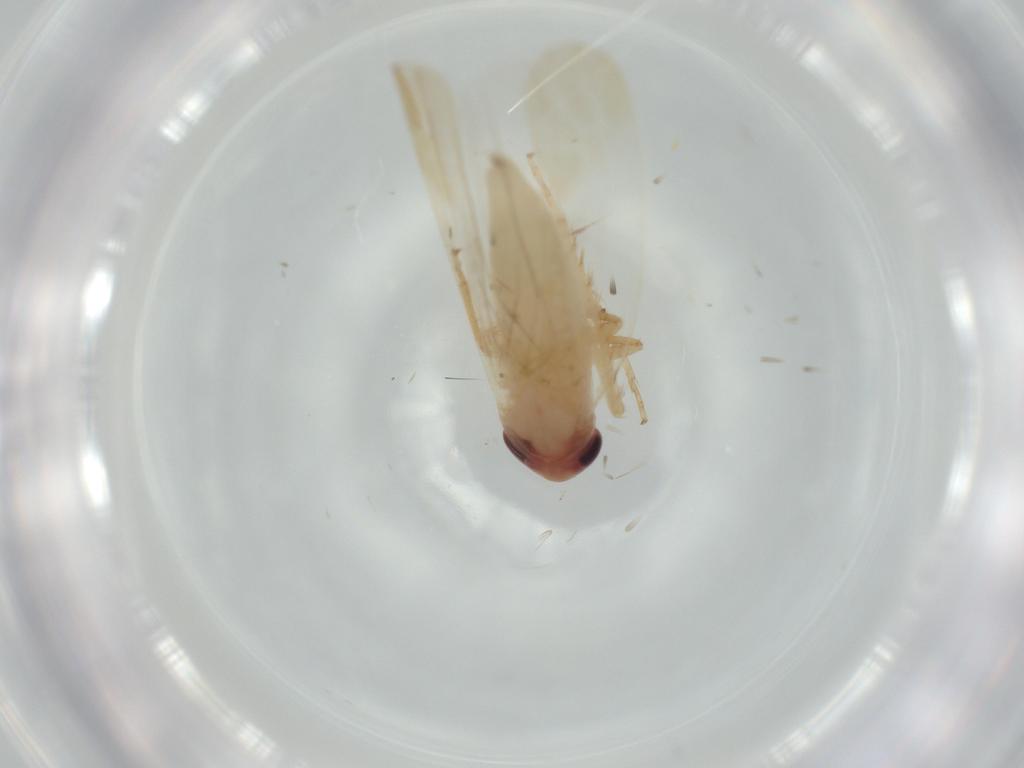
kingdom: Animalia
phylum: Arthropoda
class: Insecta
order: Hemiptera
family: Cicadellidae
